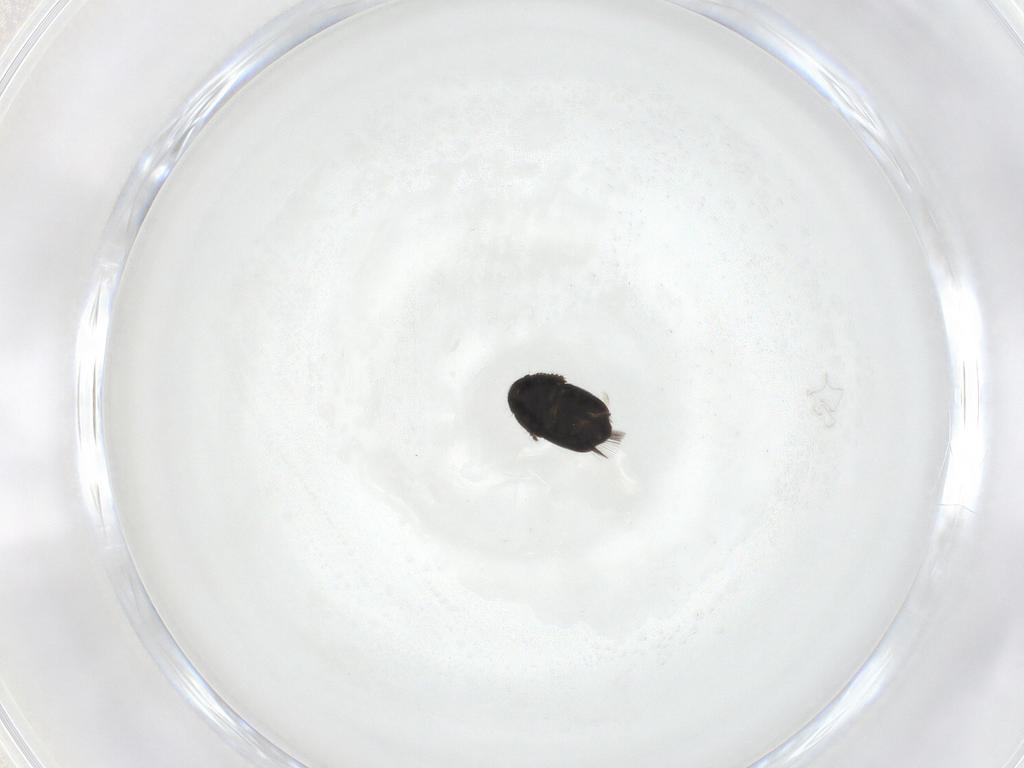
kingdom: Animalia
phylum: Arthropoda
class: Insecta
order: Coleoptera
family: Ptiliidae
